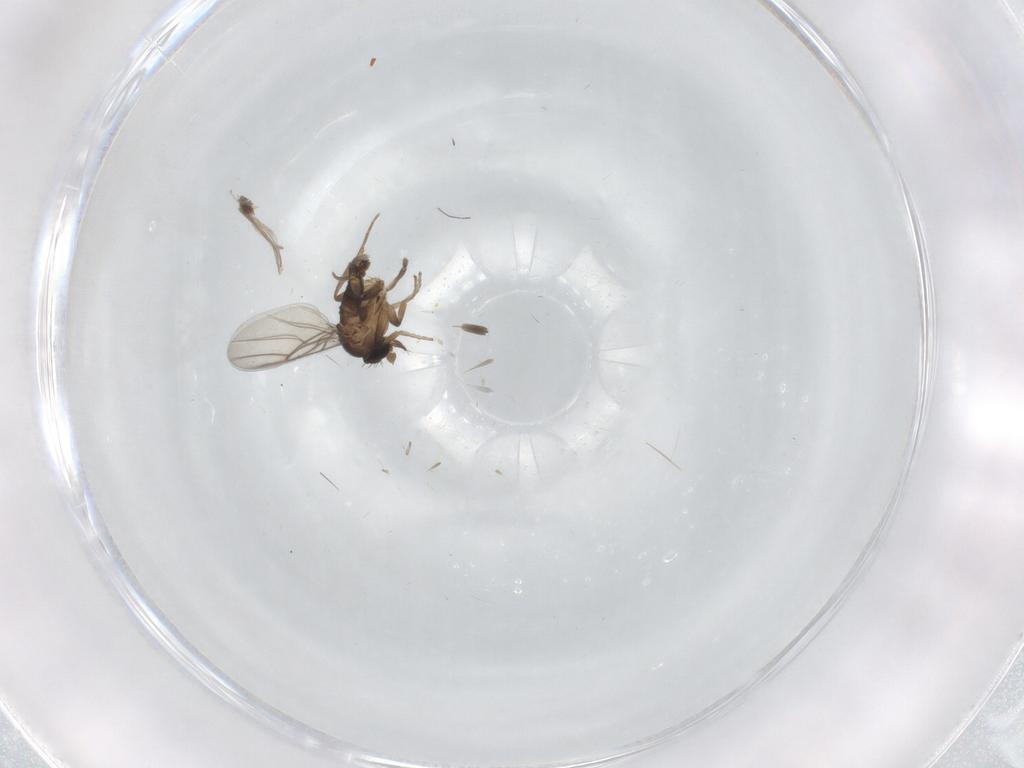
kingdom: Animalia
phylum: Arthropoda
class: Insecta
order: Diptera
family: Phoridae
